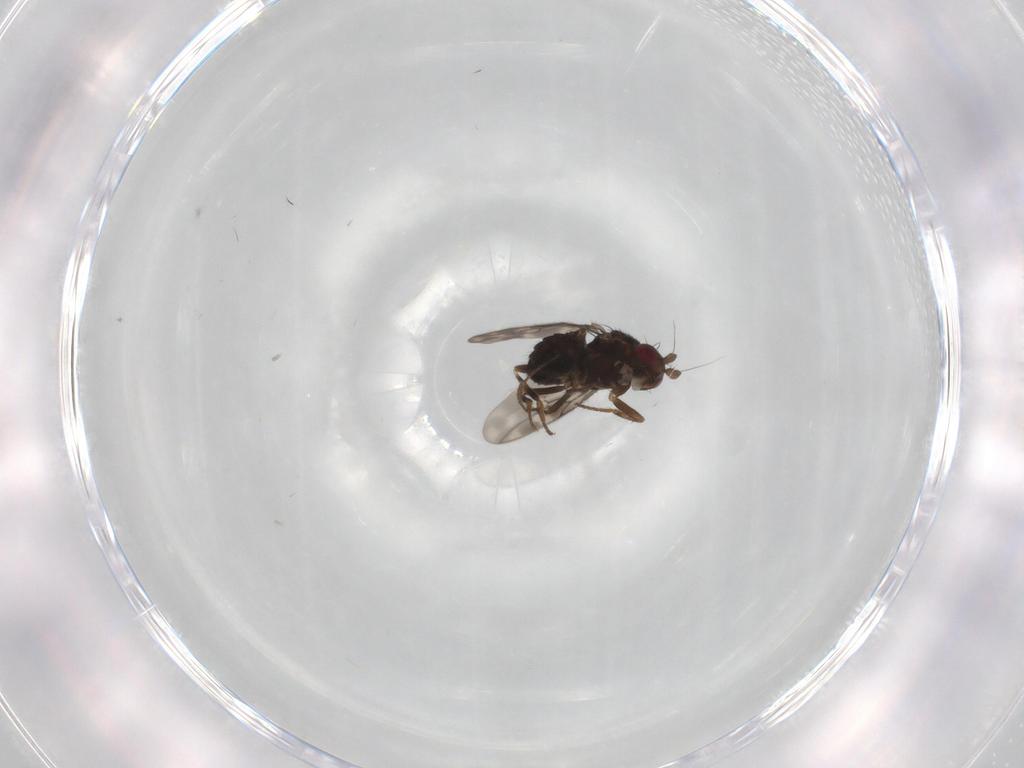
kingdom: Animalia
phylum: Arthropoda
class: Insecta
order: Diptera
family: Sphaeroceridae
